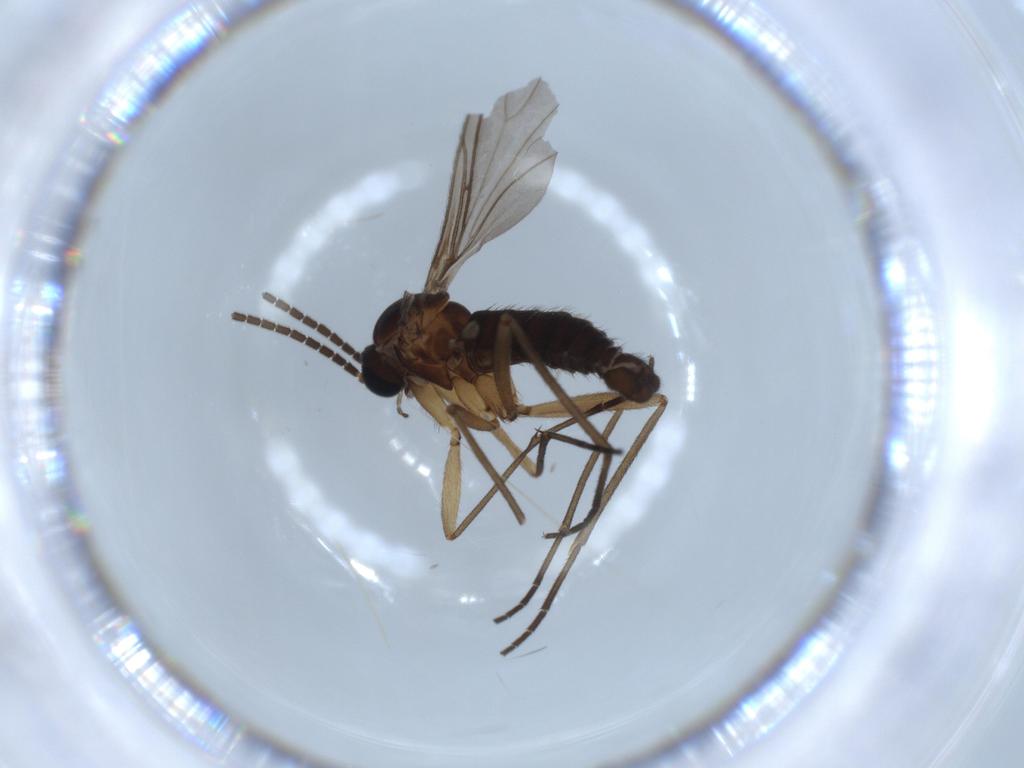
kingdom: Animalia
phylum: Arthropoda
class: Insecta
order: Diptera
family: Sciaridae
